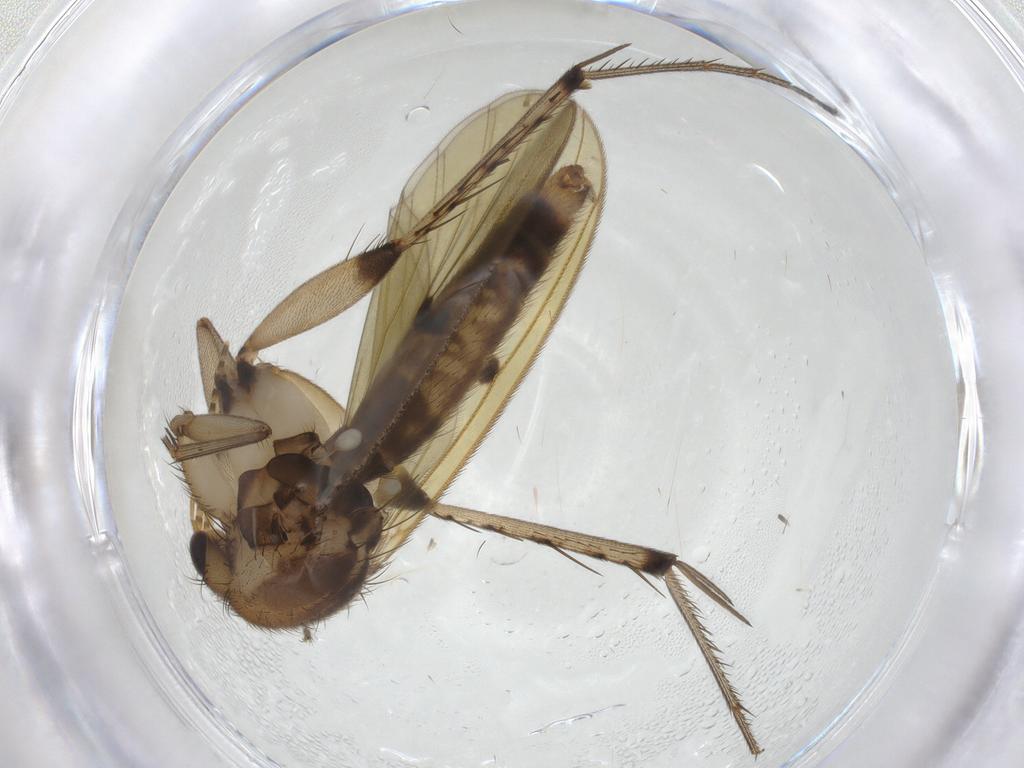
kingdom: Animalia
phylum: Arthropoda
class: Insecta
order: Diptera
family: Mycetophilidae
